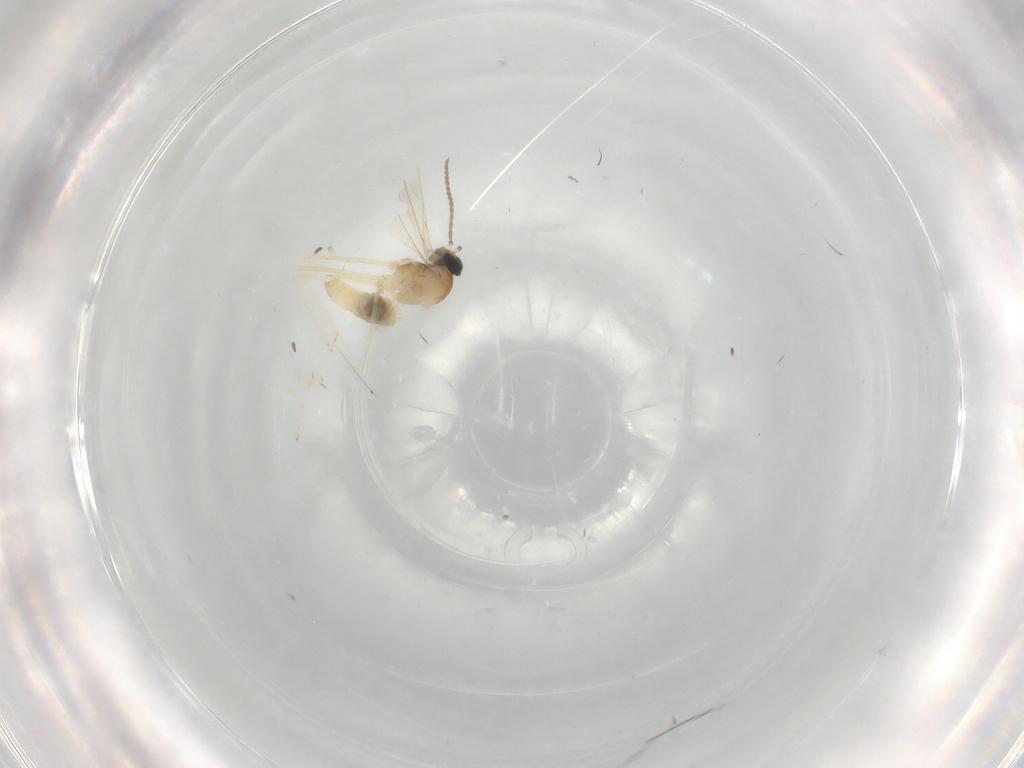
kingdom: Animalia
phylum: Arthropoda
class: Insecta
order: Diptera
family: Cecidomyiidae
